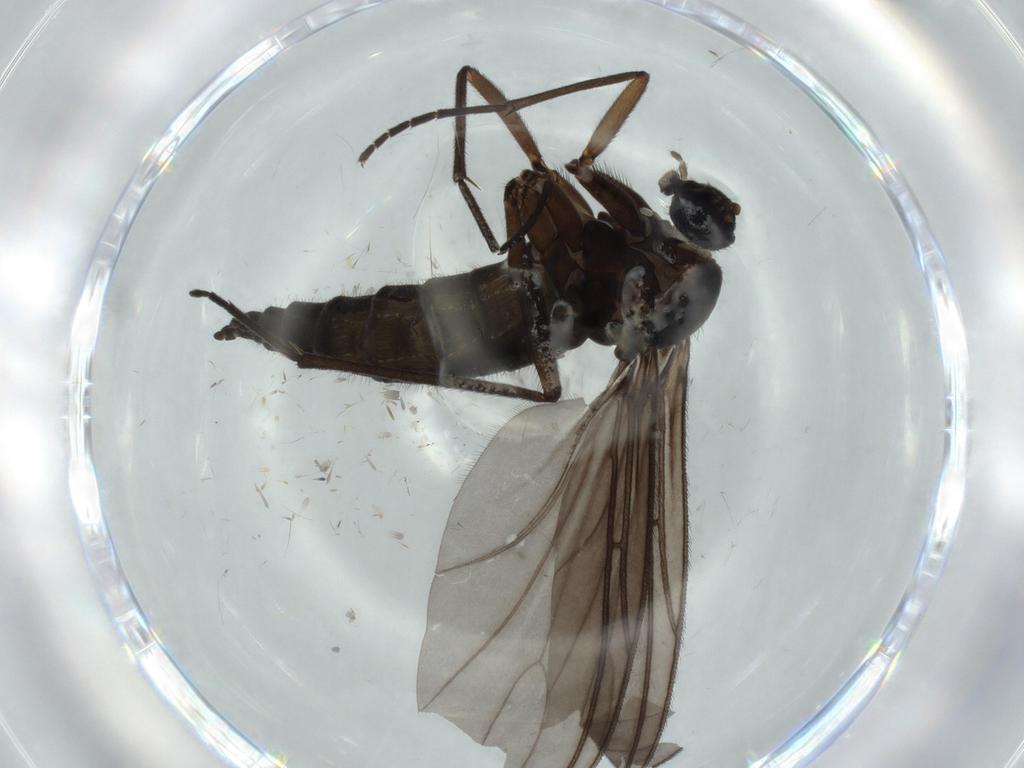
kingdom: Animalia
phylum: Arthropoda
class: Insecta
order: Diptera
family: Sciaridae
